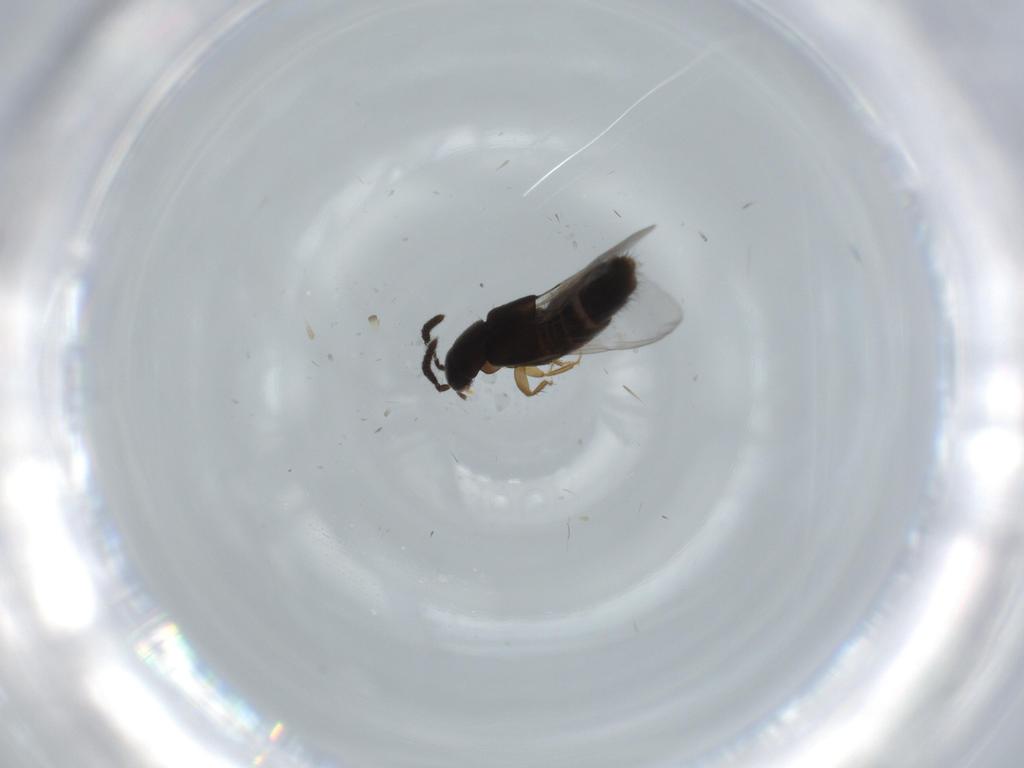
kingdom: Animalia
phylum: Arthropoda
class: Insecta
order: Coleoptera
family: Staphylinidae
